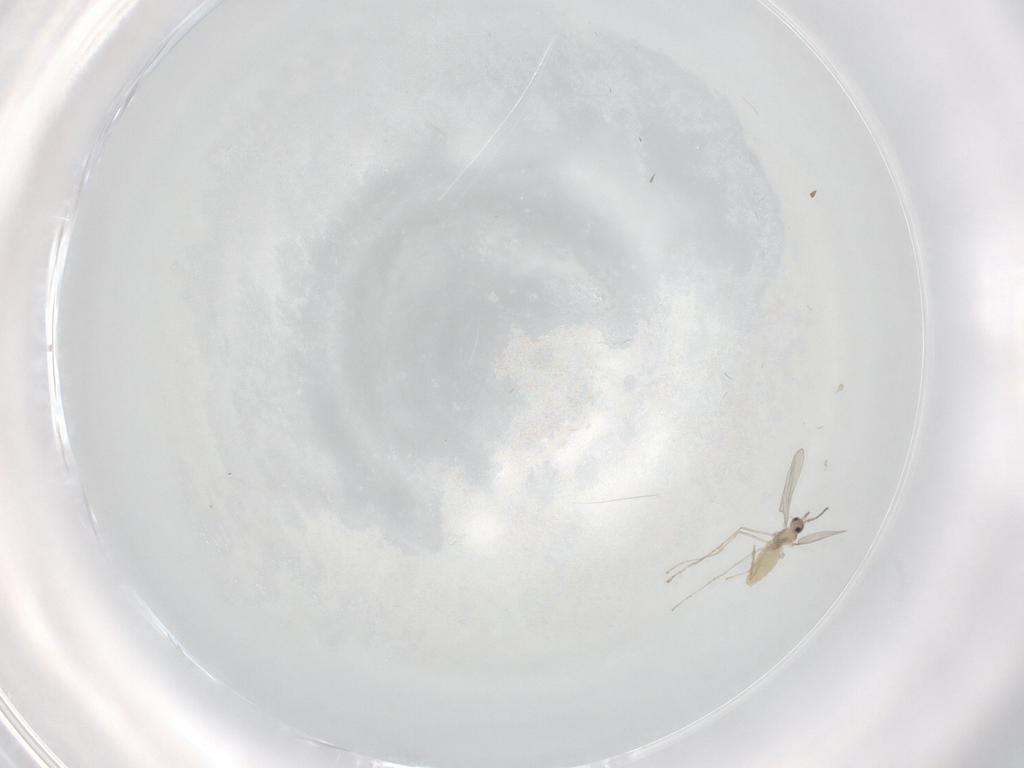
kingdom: Animalia
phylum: Arthropoda
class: Insecta
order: Diptera
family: Drosophilidae
